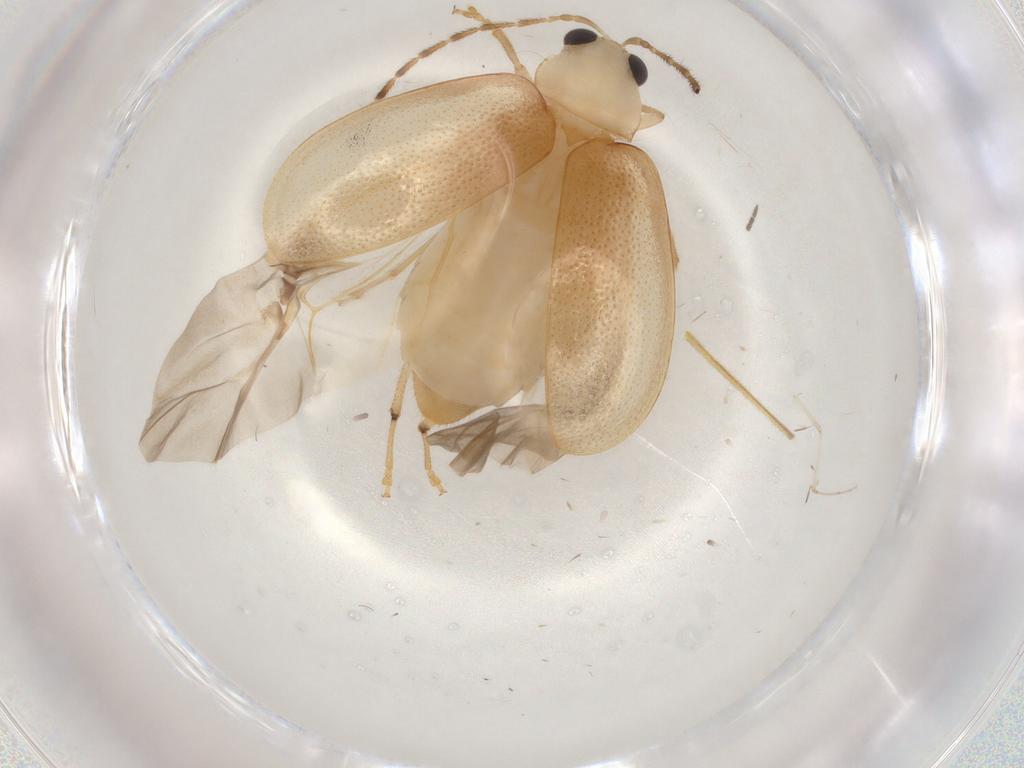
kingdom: Animalia
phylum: Arthropoda
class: Insecta
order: Coleoptera
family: Chrysomelidae
